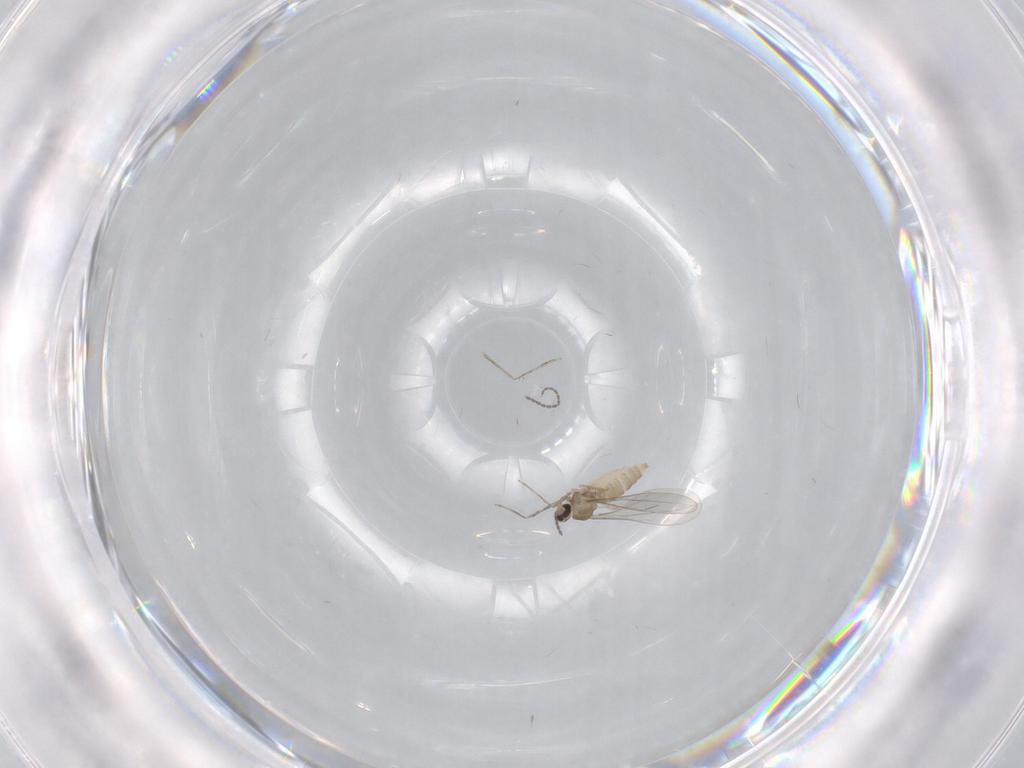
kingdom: Animalia
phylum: Arthropoda
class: Insecta
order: Diptera
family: Cecidomyiidae
